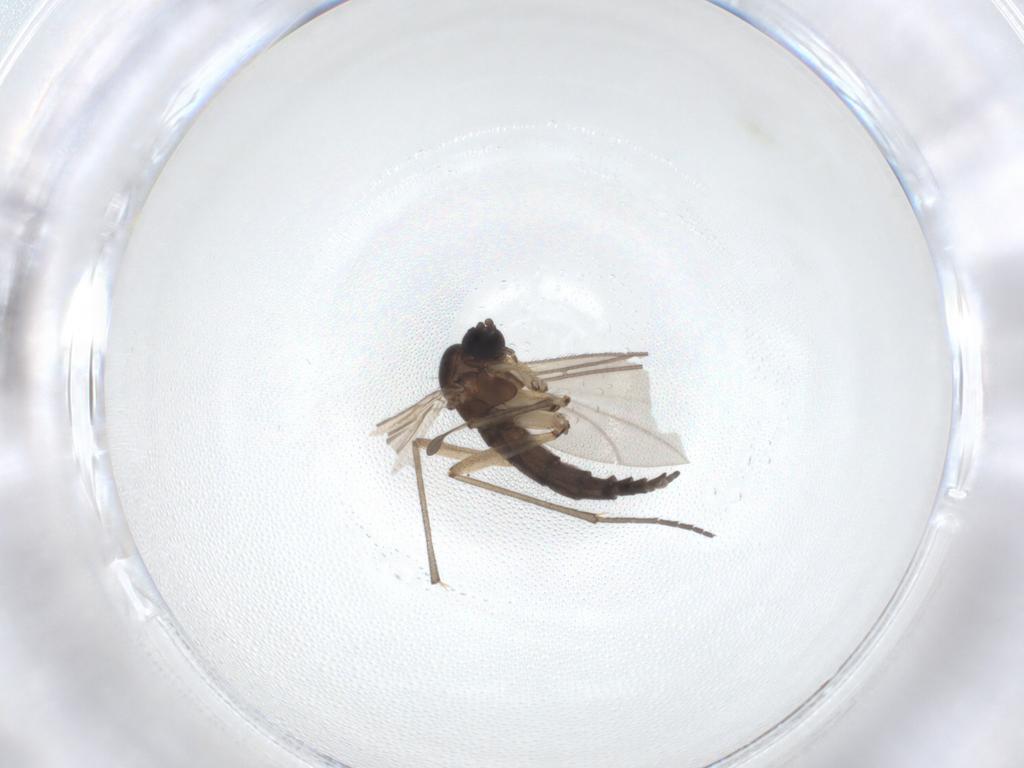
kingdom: Animalia
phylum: Arthropoda
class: Insecta
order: Diptera
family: Sciaridae
